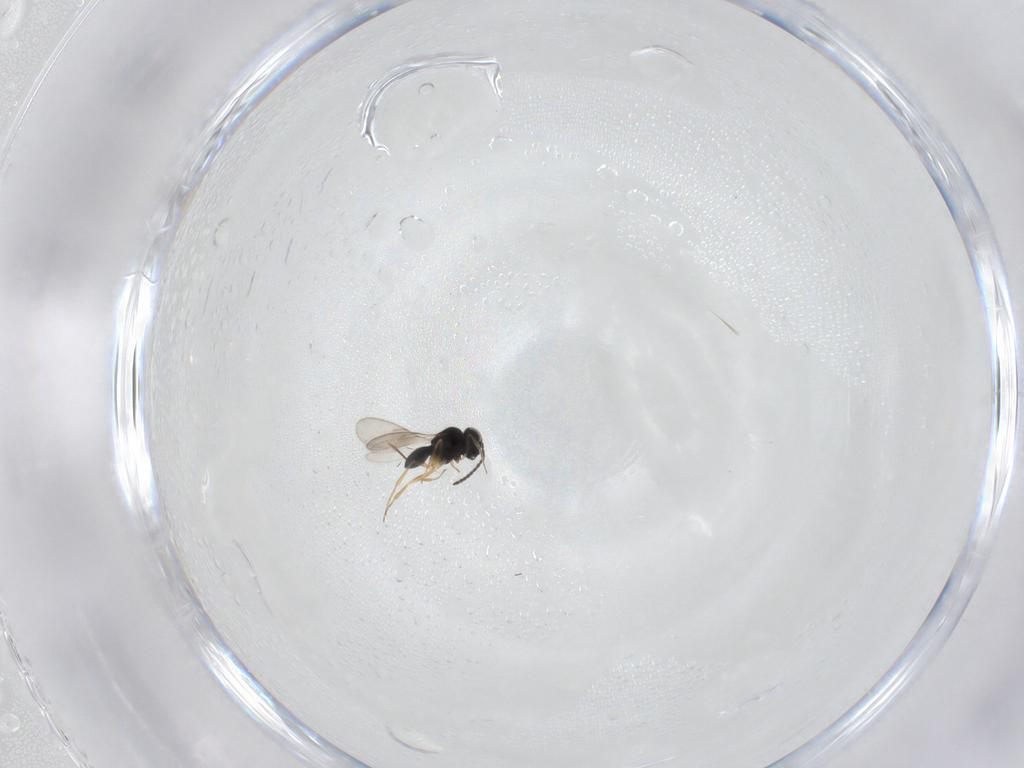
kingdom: Animalia
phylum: Arthropoda
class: Insecta
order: Hymenoptera
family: Scelionidae
